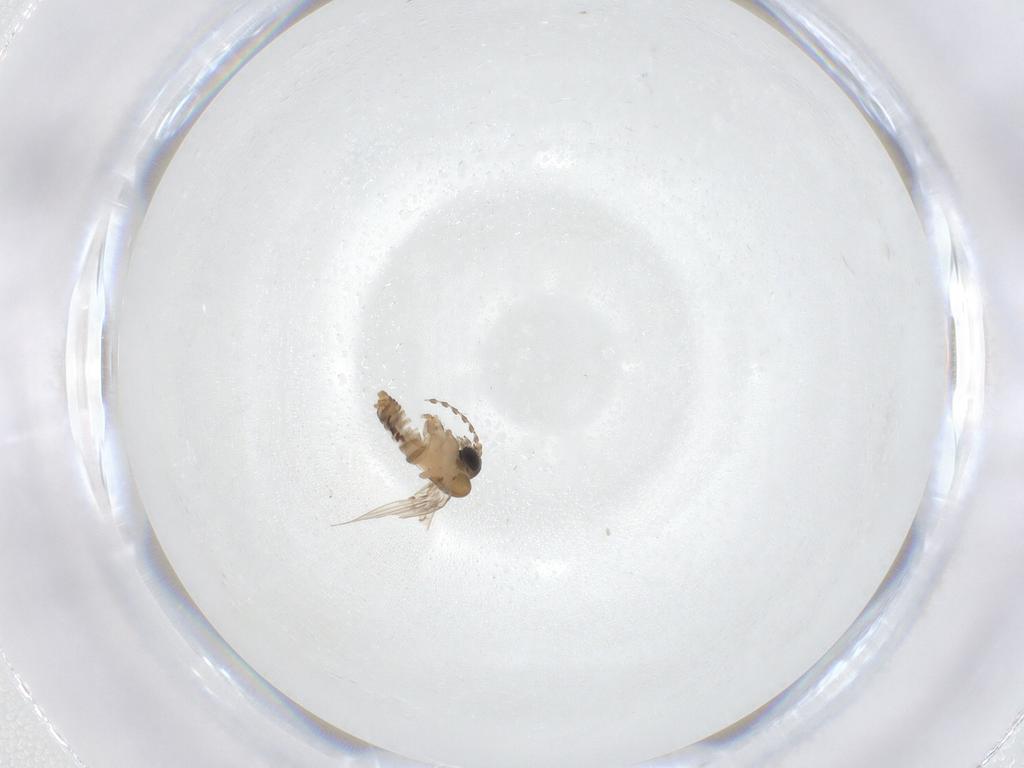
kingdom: Animalia
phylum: Arthropoda
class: Insecta
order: Diptera
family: Psychodidae
